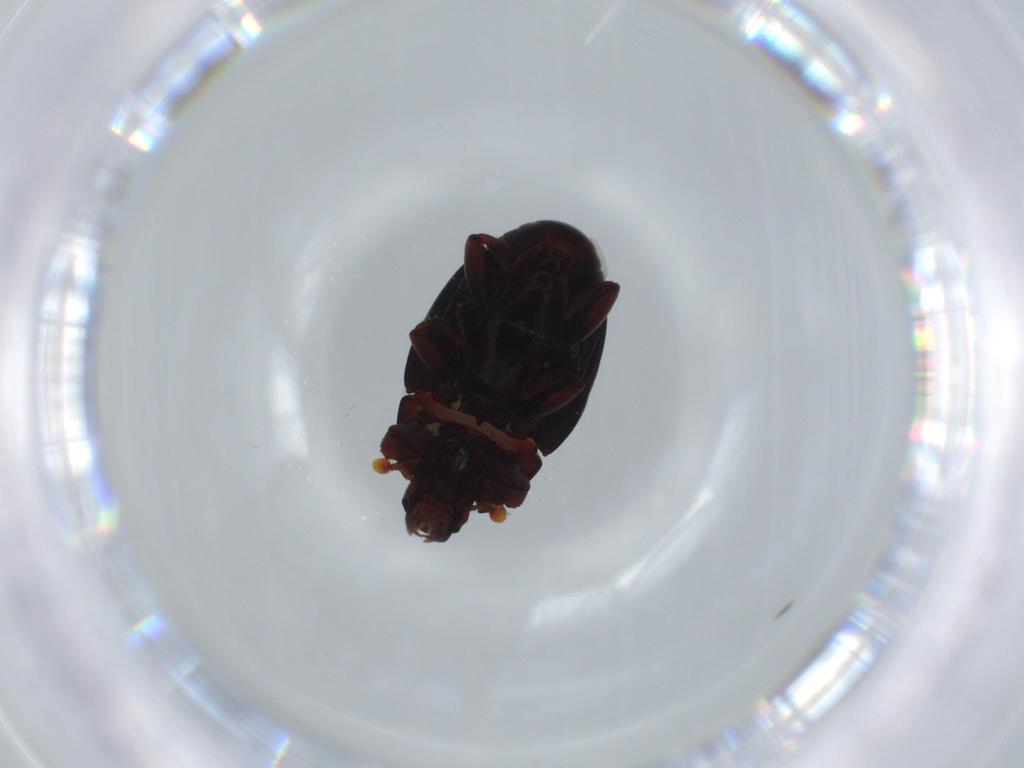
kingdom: Animalia
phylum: Arthropoda
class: Insecta
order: Coleoptera
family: Histeridae
